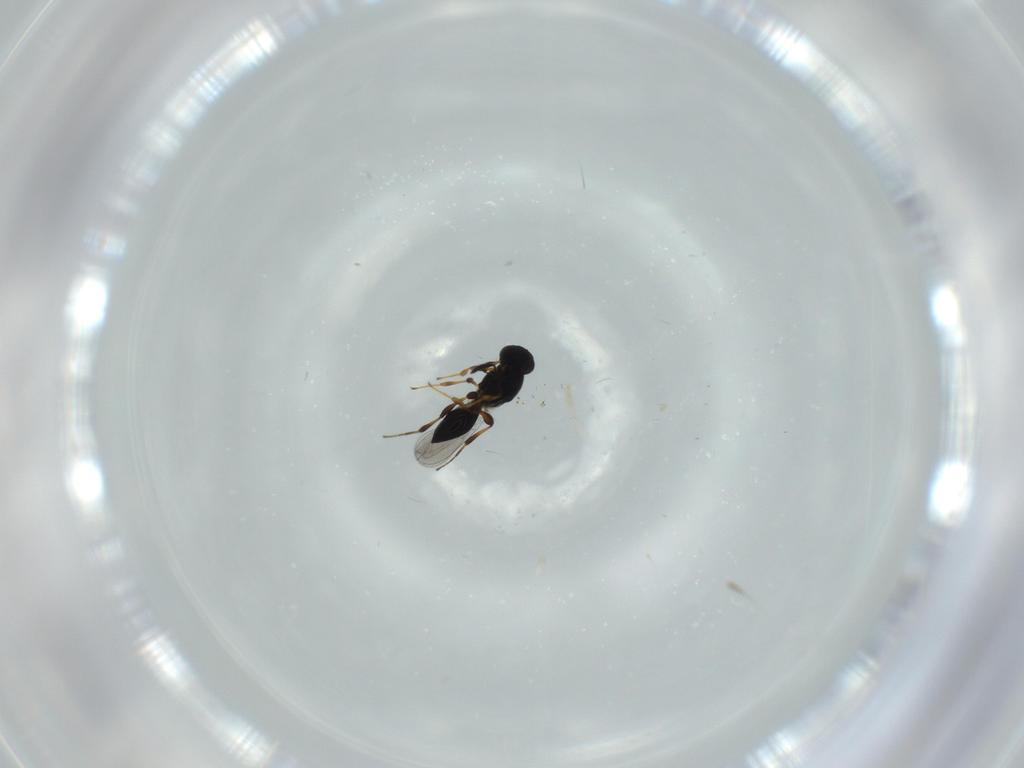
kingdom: Animalia
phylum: Arthropoda
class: Insecta
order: Hymenoptera
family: Platygastridae
